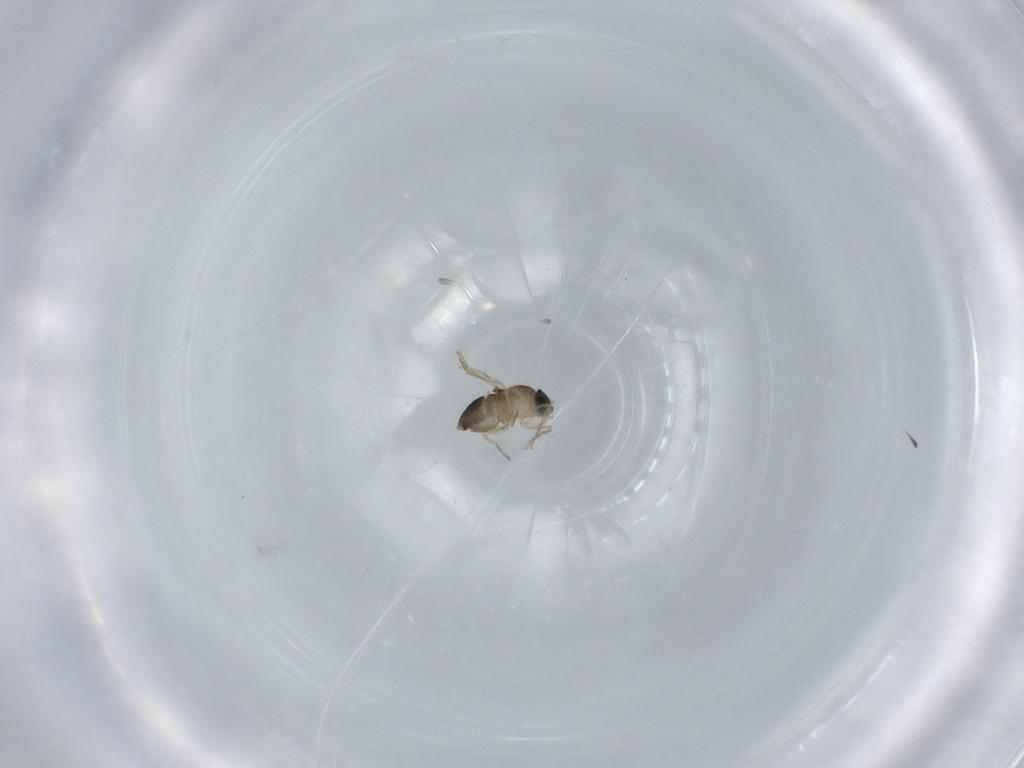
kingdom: Animalia
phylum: Arthropoda
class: Insecta
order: Diptera
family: Phoridae
